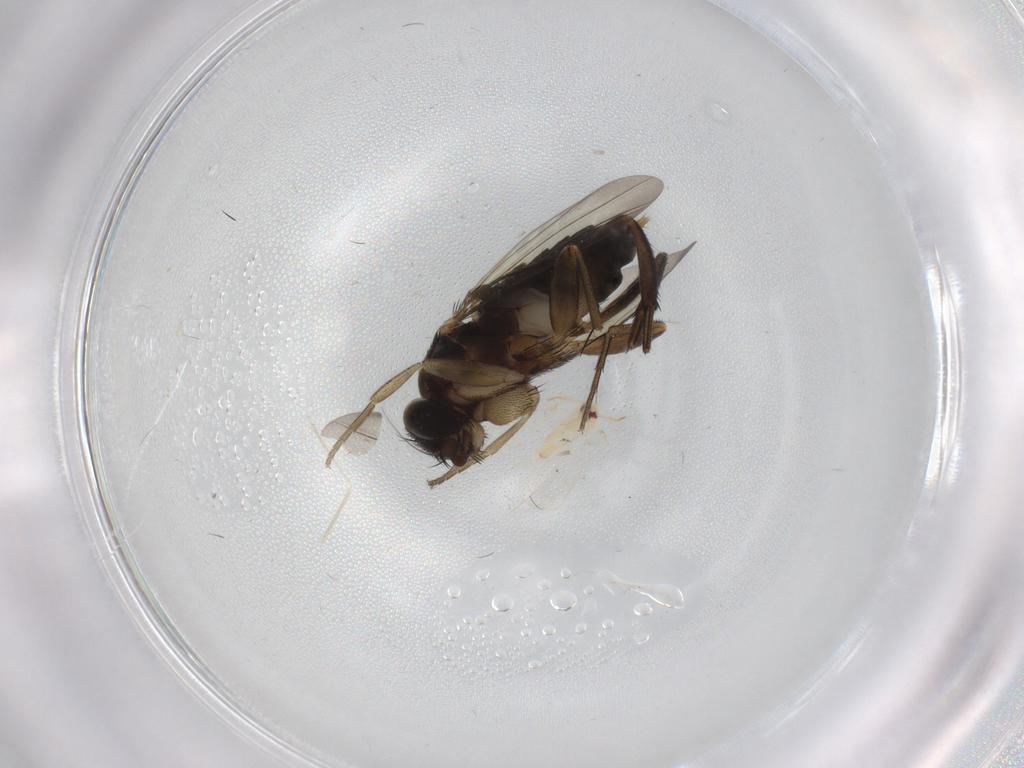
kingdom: Animalia
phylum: Arthropoda
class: Insecta
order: Diptera
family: Phoridae
